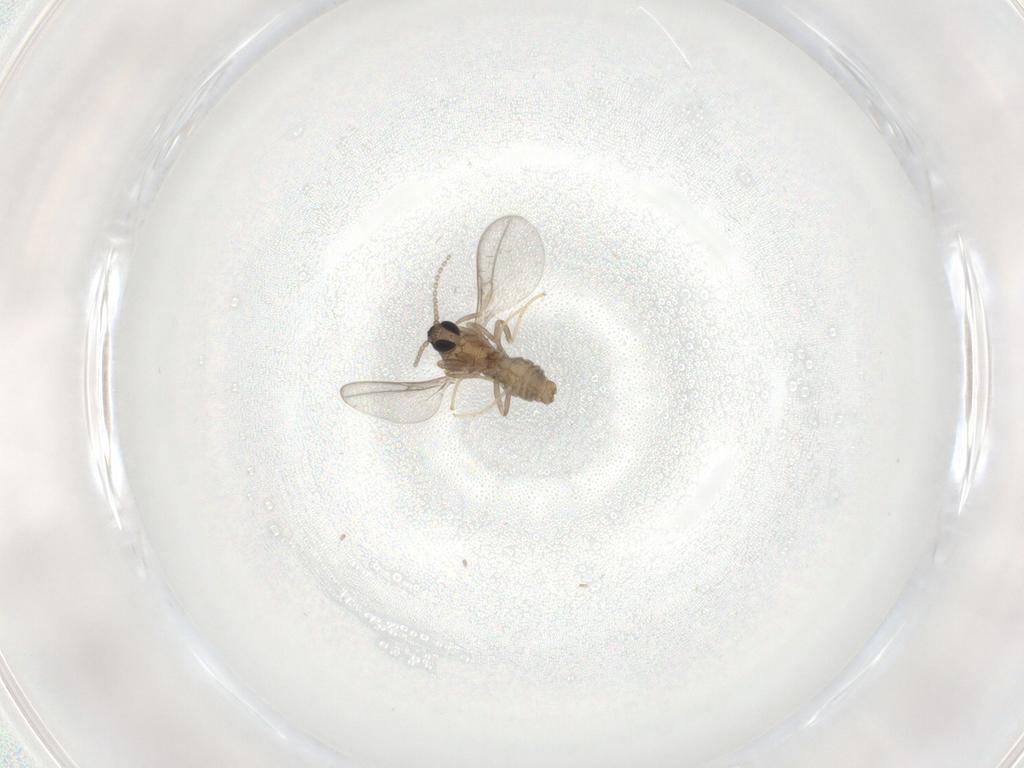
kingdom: Animalia
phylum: Arthropoda
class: Insecta
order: Diptera
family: Cecidomyiidae
